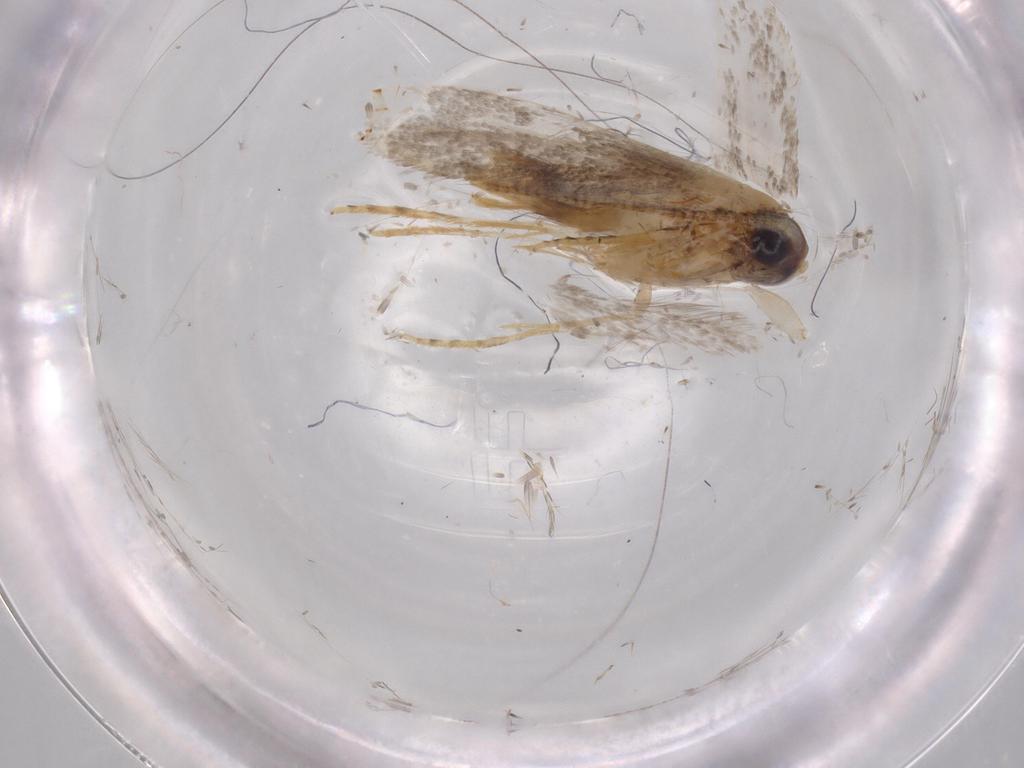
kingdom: Animalia
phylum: Arthropoda
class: Insecta
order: Lepidoptera
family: Tineidae
